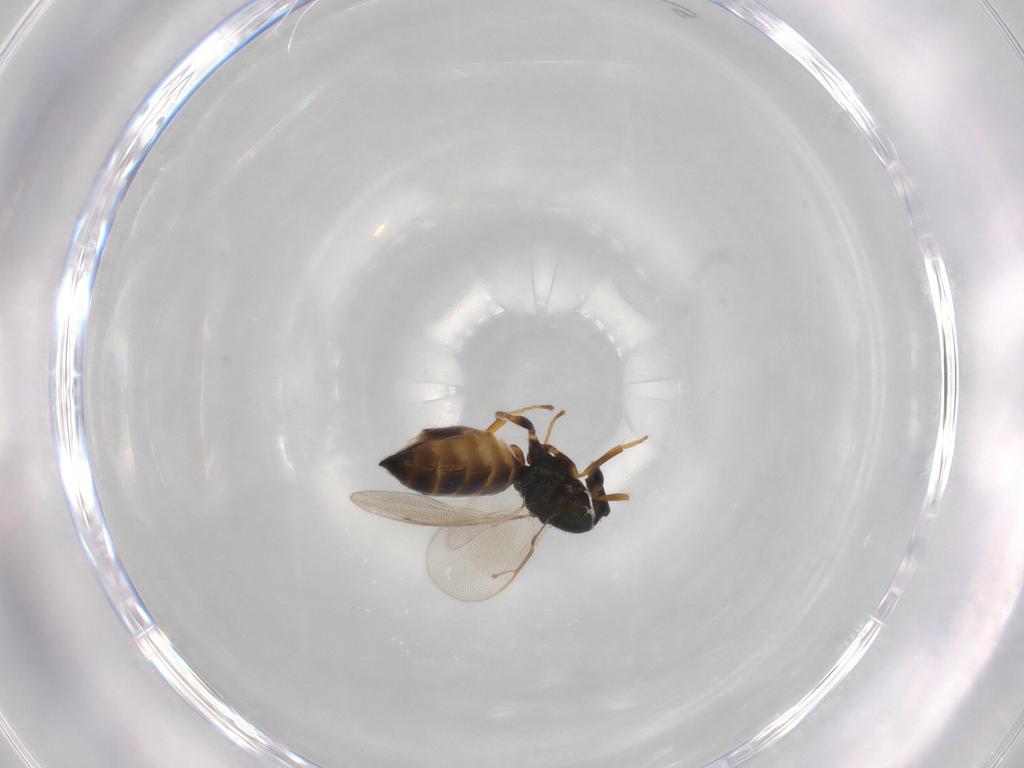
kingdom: Animalia
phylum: Arthropoda
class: Insecta
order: Hymenoptera
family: Pteromalidae
